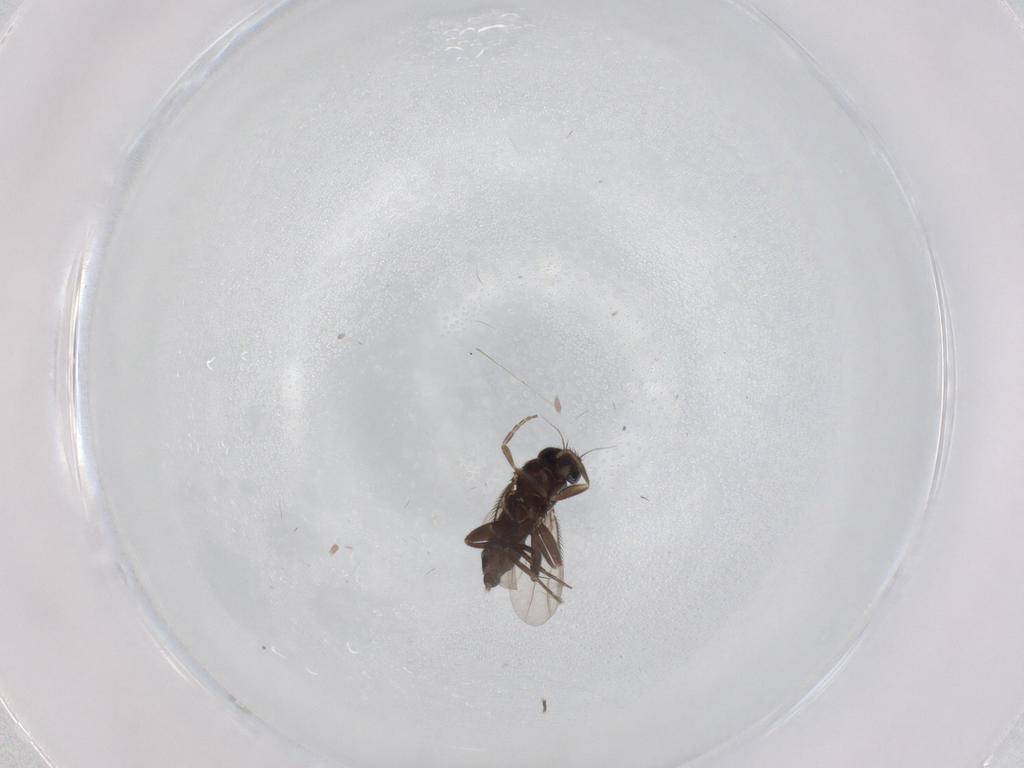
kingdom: Animalia
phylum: Arthropoda
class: Insecta
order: Diptera
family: Phoridae
